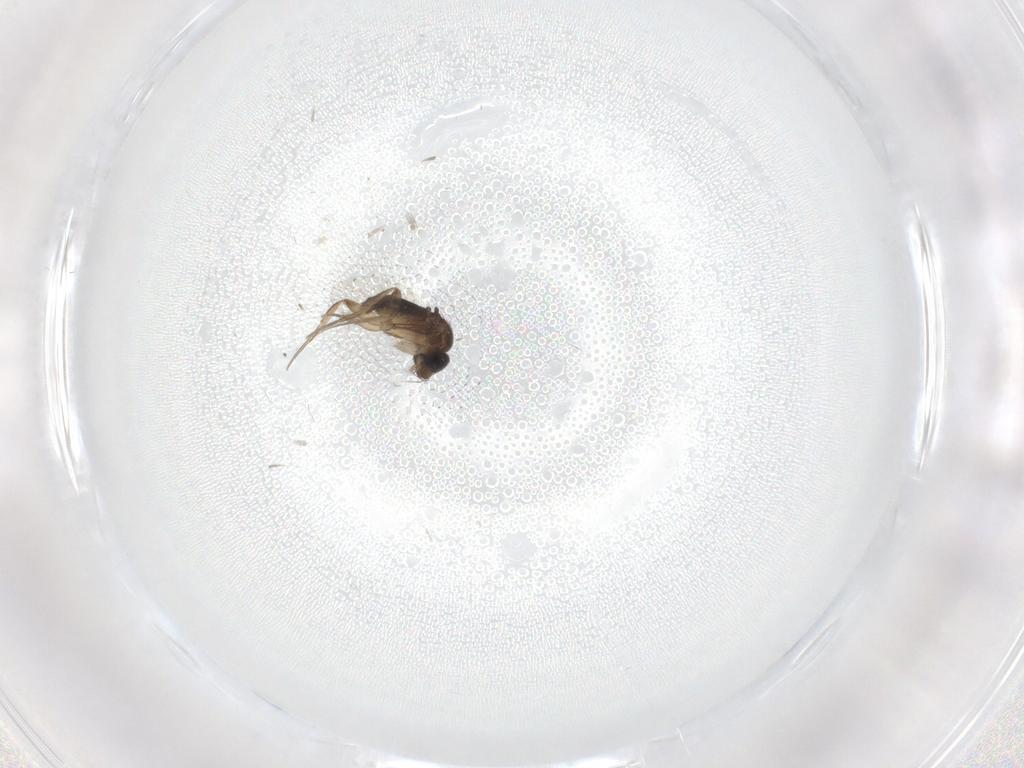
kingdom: Animalia
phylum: Arthropoda
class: Insecta
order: Diptera
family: Phoridae
